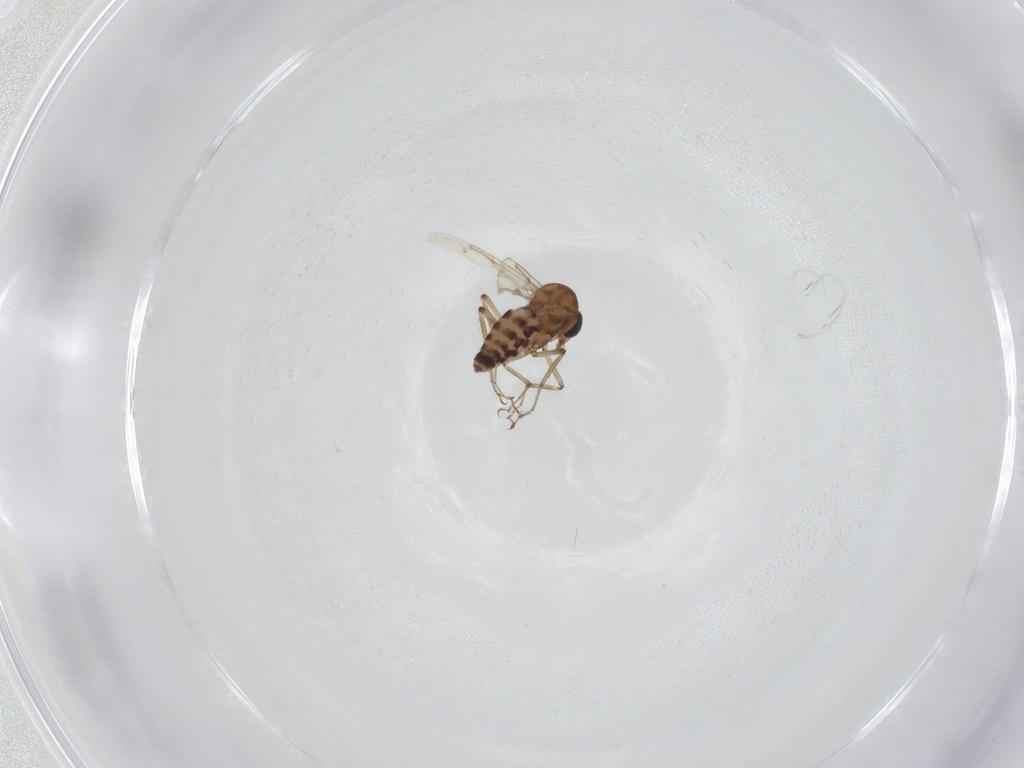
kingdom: Animalia
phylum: Arthropoda
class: Insecta
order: Diptera
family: Ceratopogonidae
